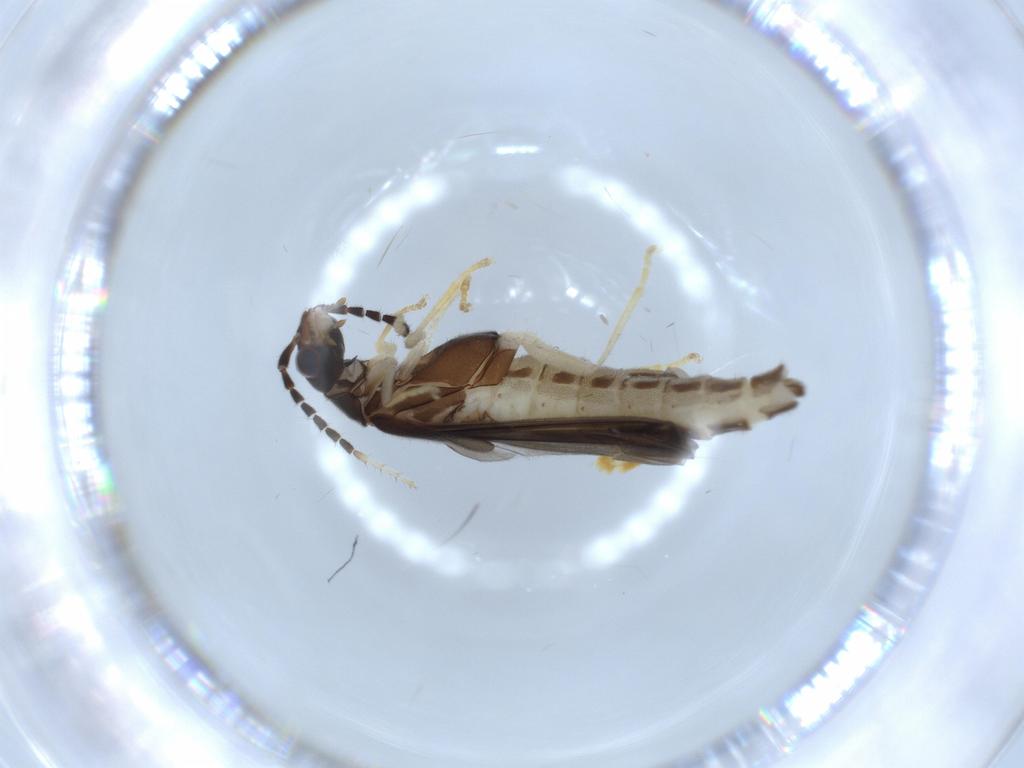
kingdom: Animalia
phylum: Arthropoda
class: Insecta
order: Coleoptera
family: Cantharidae
